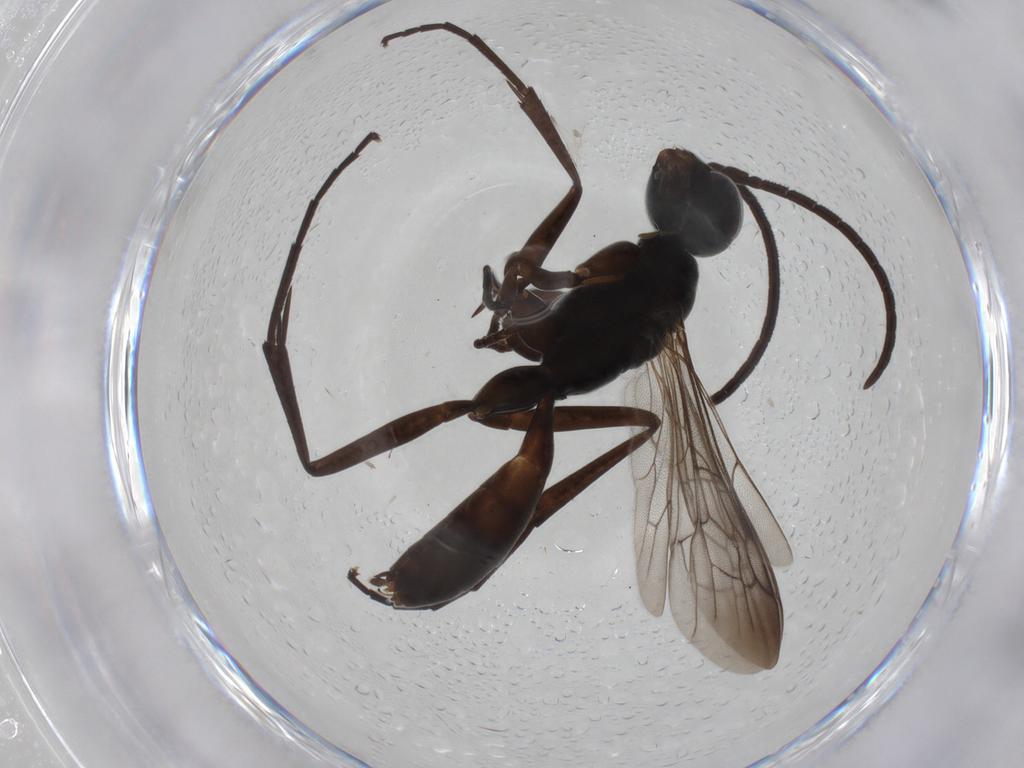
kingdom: Animalia
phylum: Arthropoda
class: Insecta
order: Hymenoptera
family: Pompilidae
